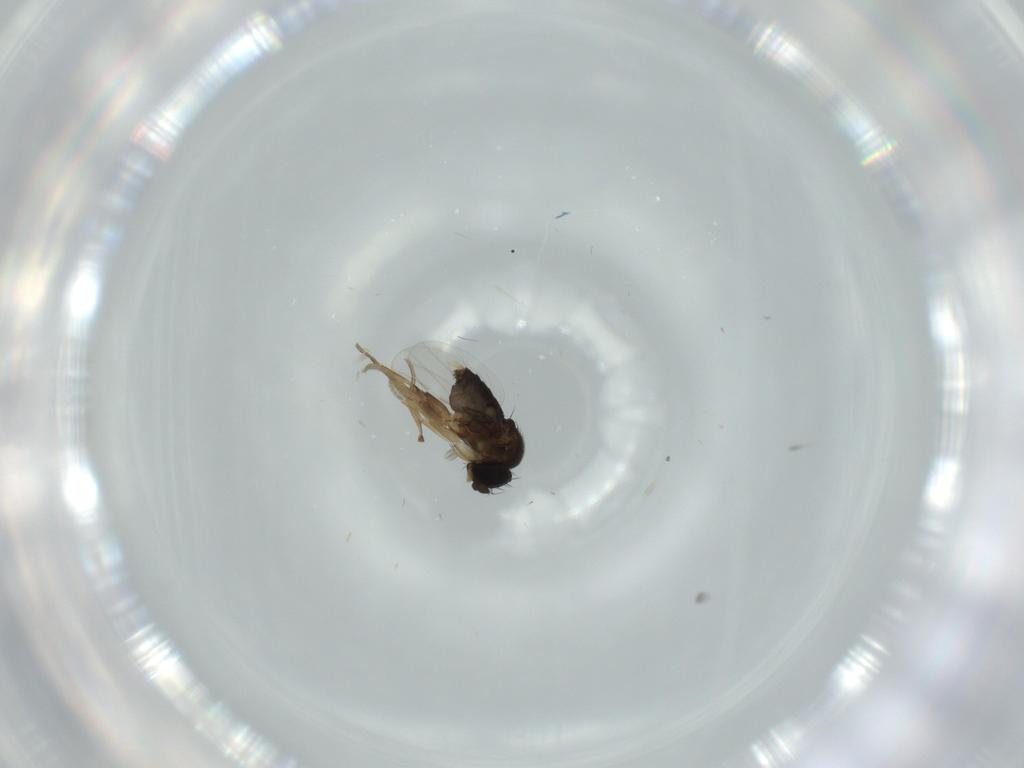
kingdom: Animalia
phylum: Arthropoda
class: Insecta
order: Diptera
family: Phoridae
